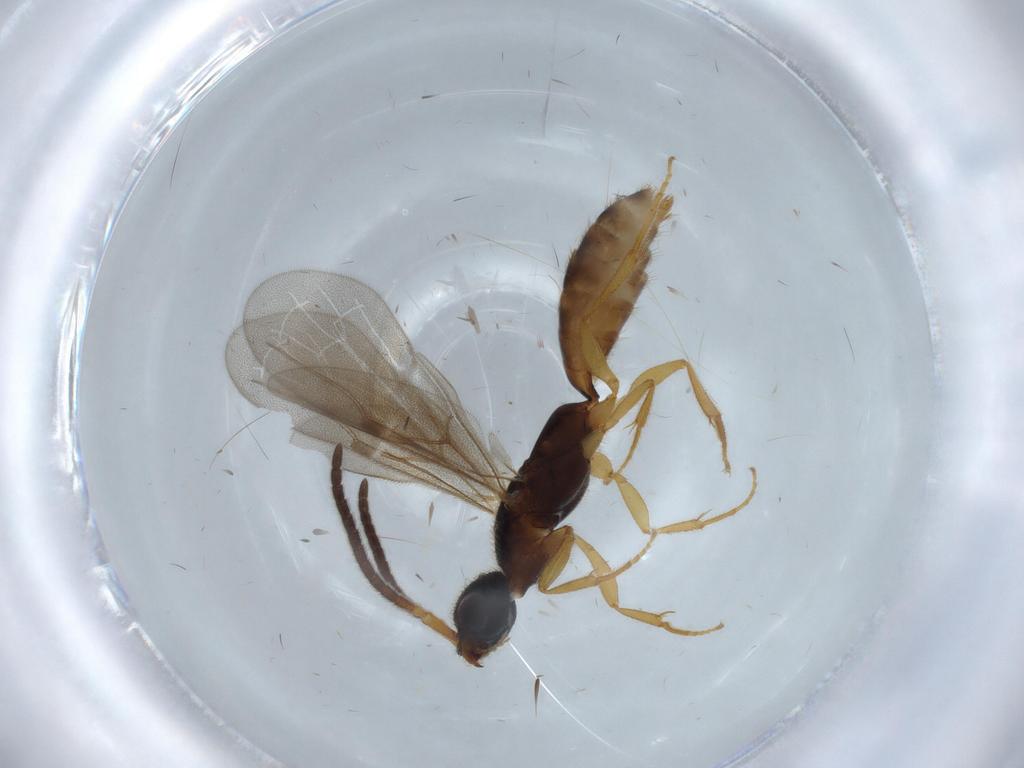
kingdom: Animalia
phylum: Arthropoda
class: Insecta
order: Hymenoptera
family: Bethylidae
